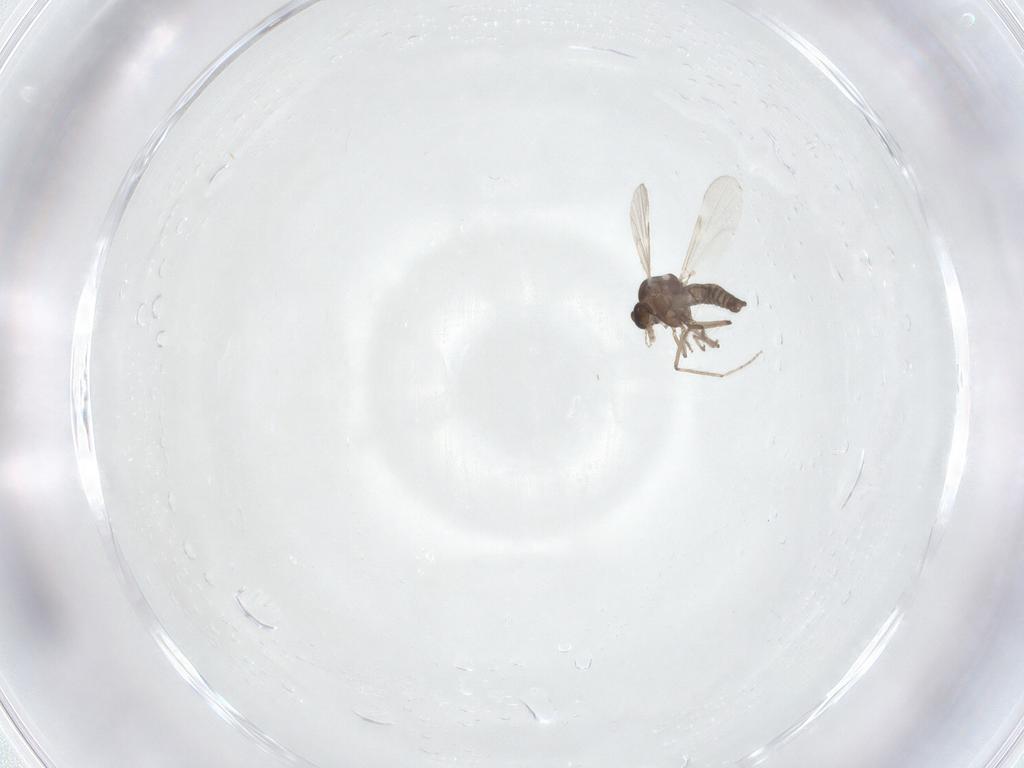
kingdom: Animalia
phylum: Arthropoda
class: Insecta
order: Diptera
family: Ceratopogonidae
